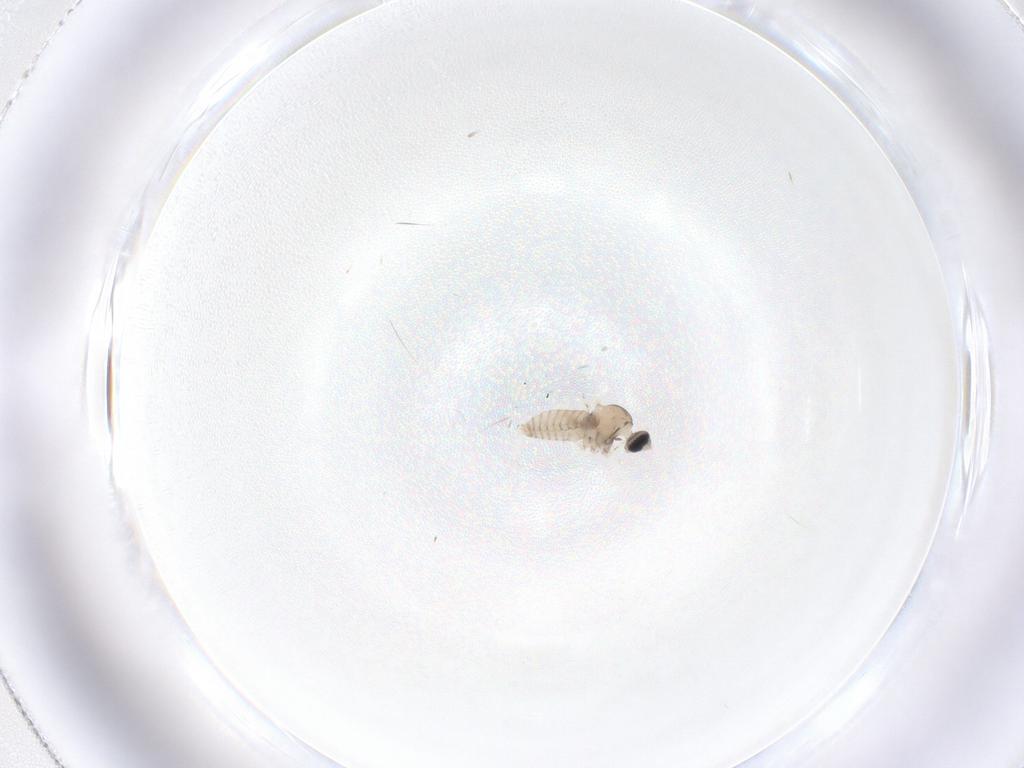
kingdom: Animalia
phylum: Arthropoda
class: Insecta
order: Diptera
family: Cecidomyiidae
